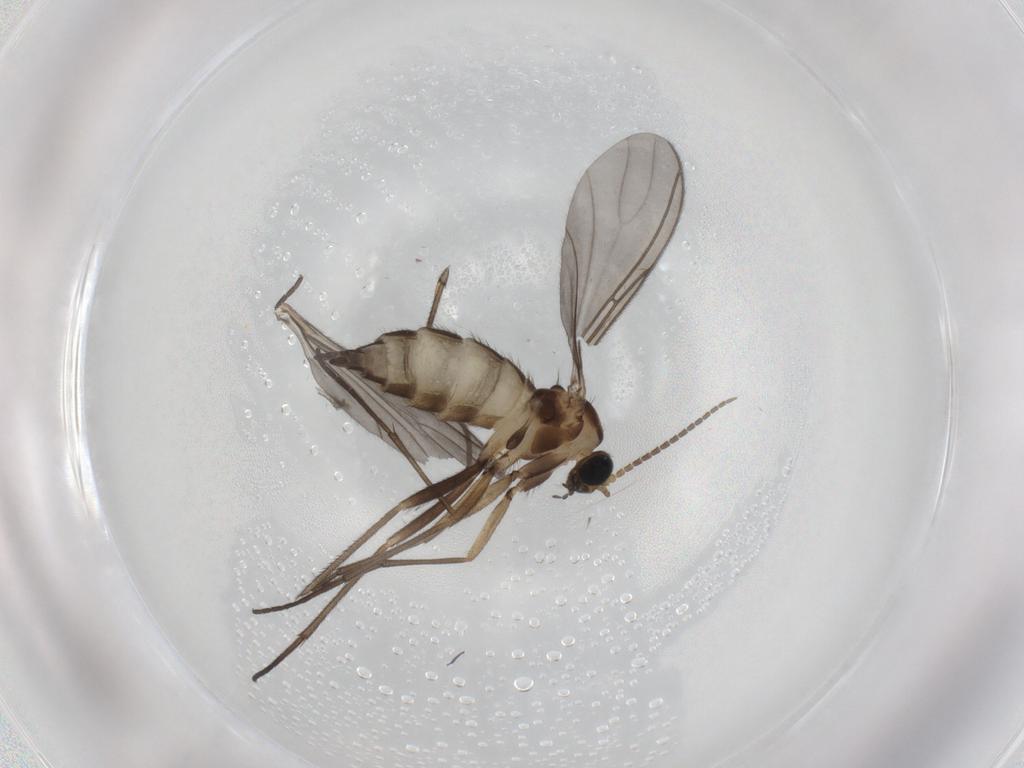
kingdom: Animalia
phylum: Arthropoda
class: Insecta
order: Diptera
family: Sciaridae
